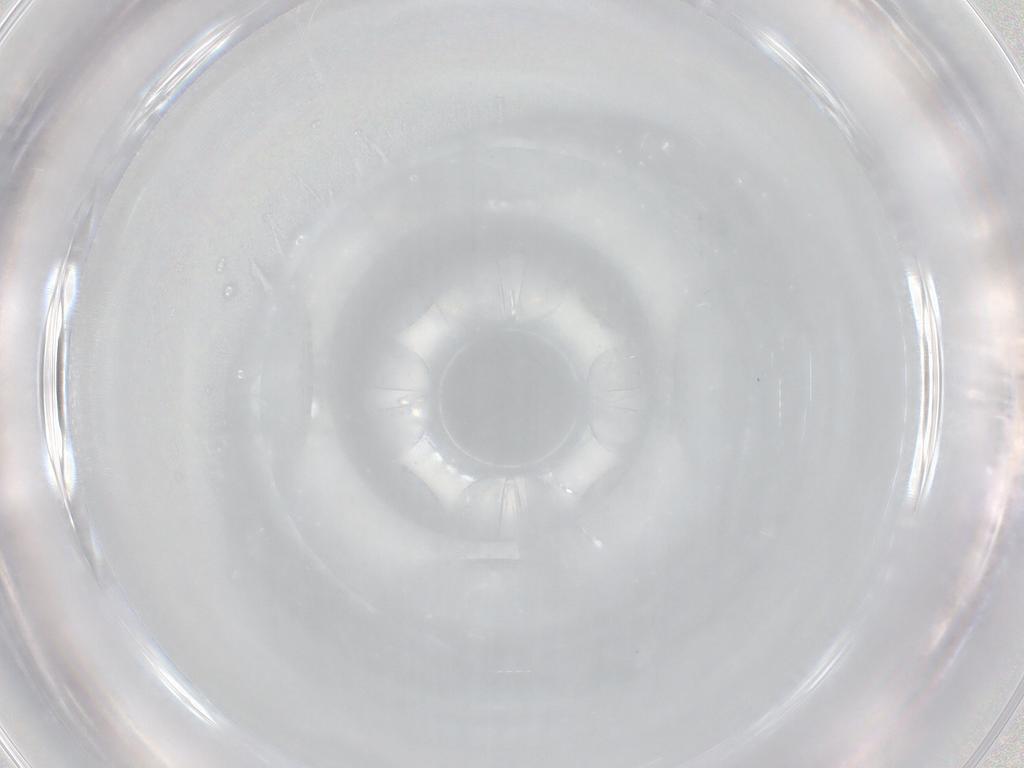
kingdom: Animalia
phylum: Arthropoda
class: Insecta
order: Coleoptera
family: Anthribidae
